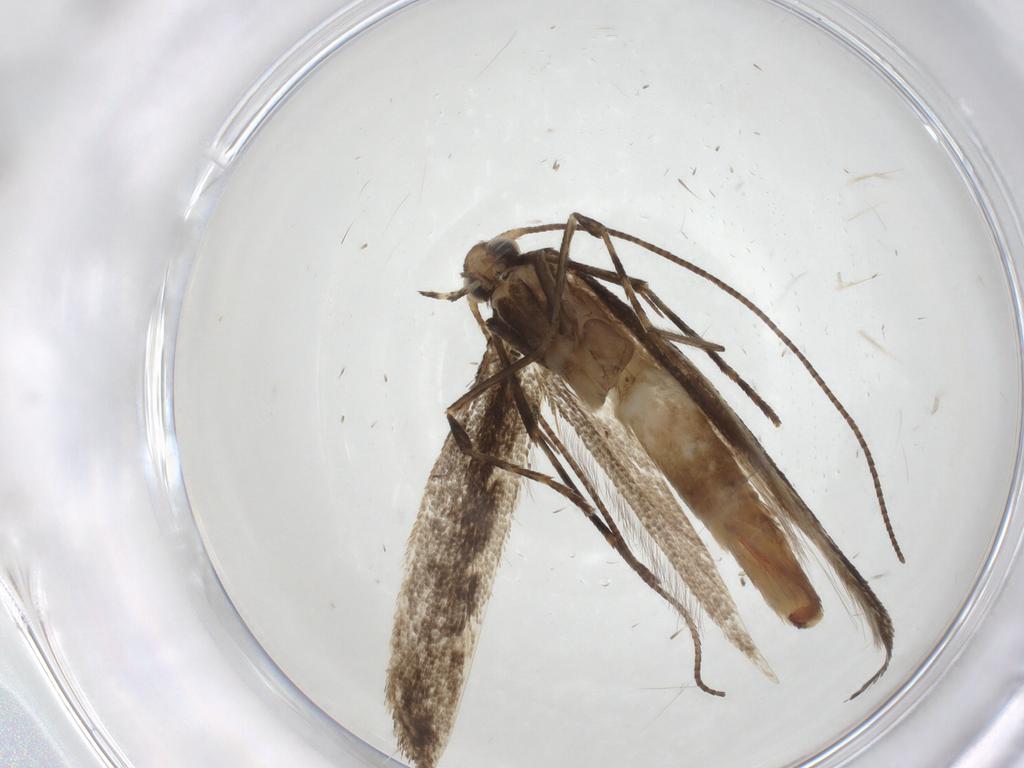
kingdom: Animalia
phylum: Arthropoda
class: Insecta
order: Lepidoptera
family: Gracillariidae
